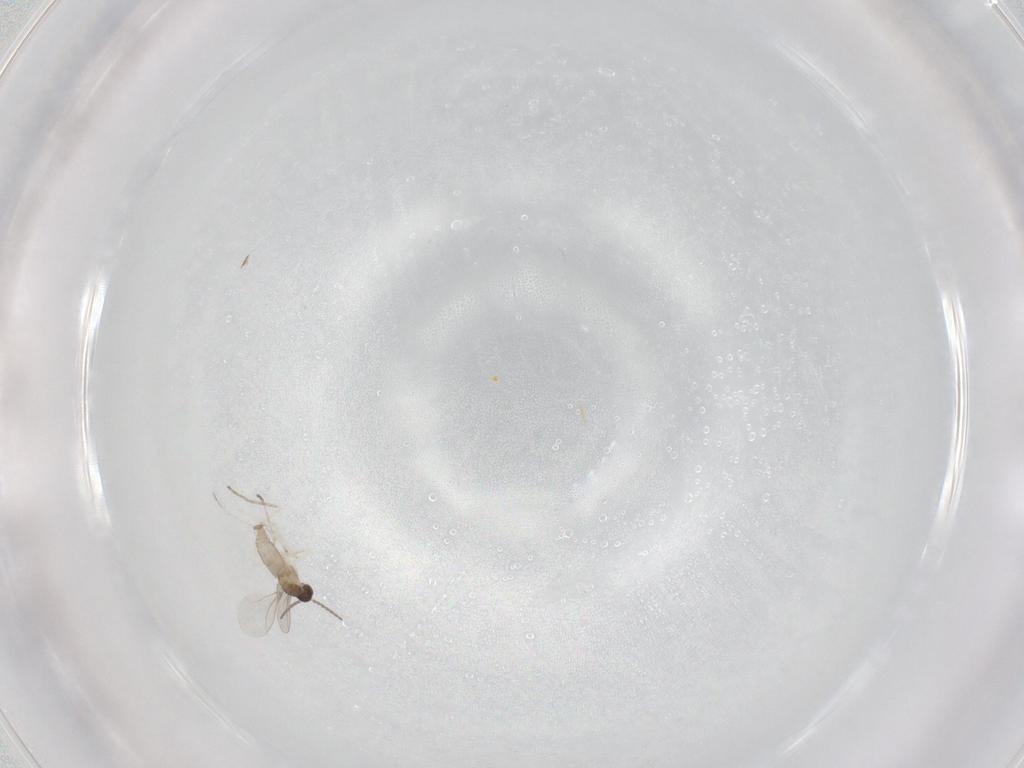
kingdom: Animalia
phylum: Arthropoda
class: Insecta
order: Diptera
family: Cecidomyiidae
